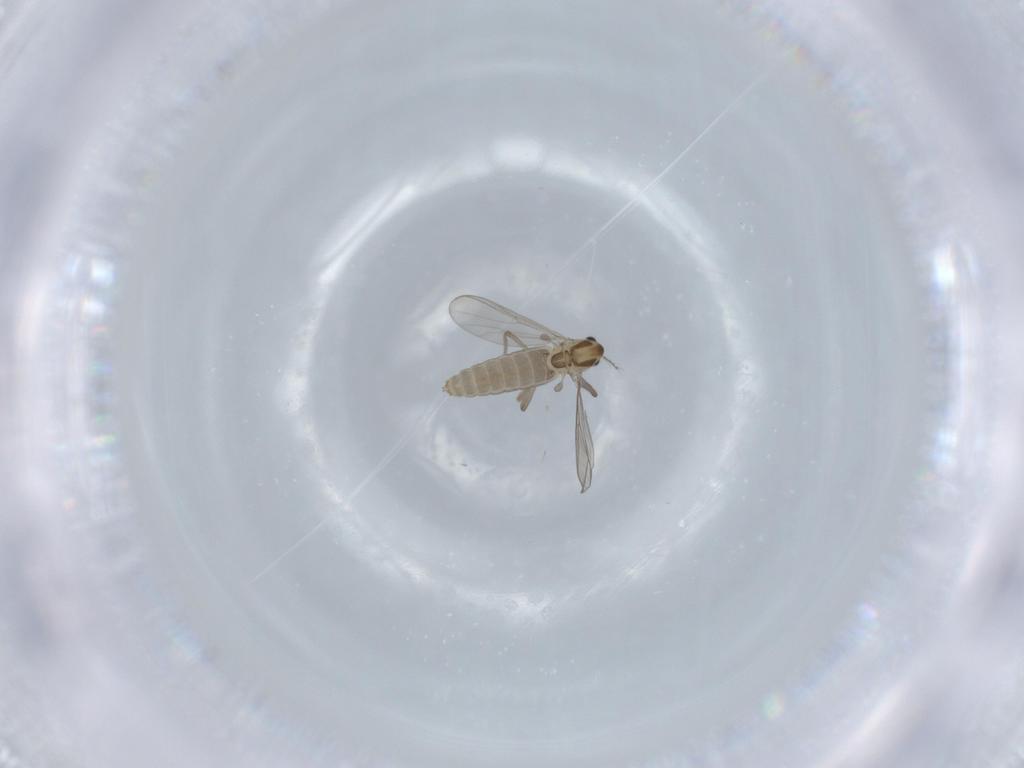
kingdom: Animalia
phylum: Arthropoda
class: Insecta
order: Diptera
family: Chironomidae
